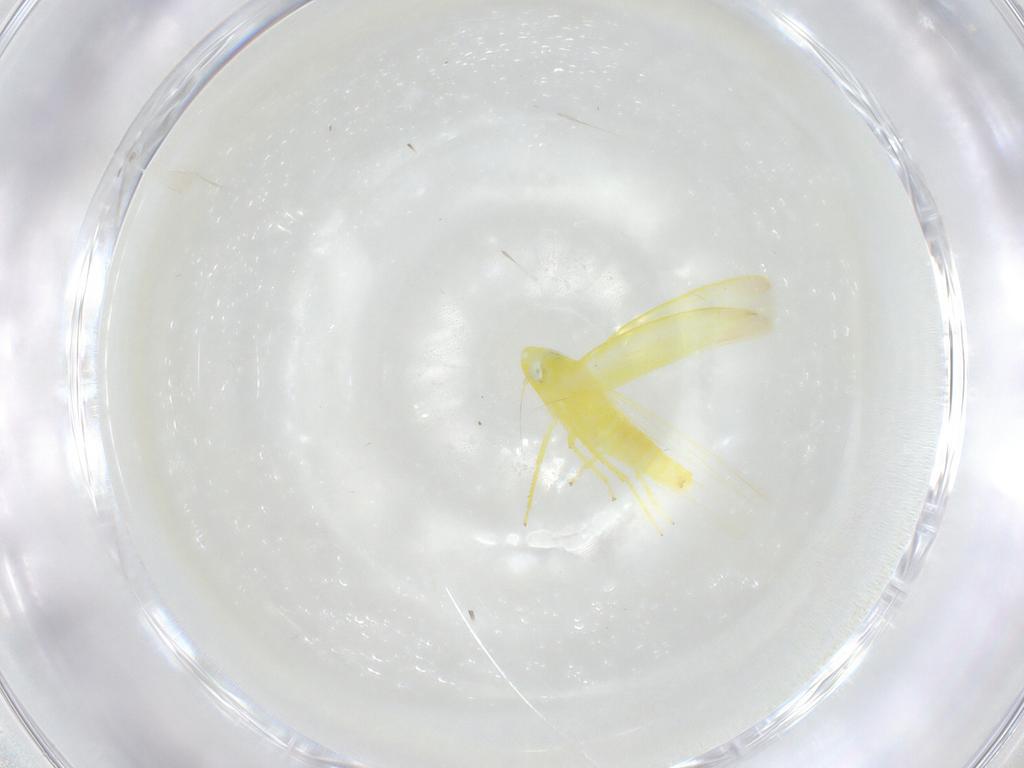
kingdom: Animalia
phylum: Arthropoda
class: Insecta
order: Hemiptera
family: Cicadellidae
